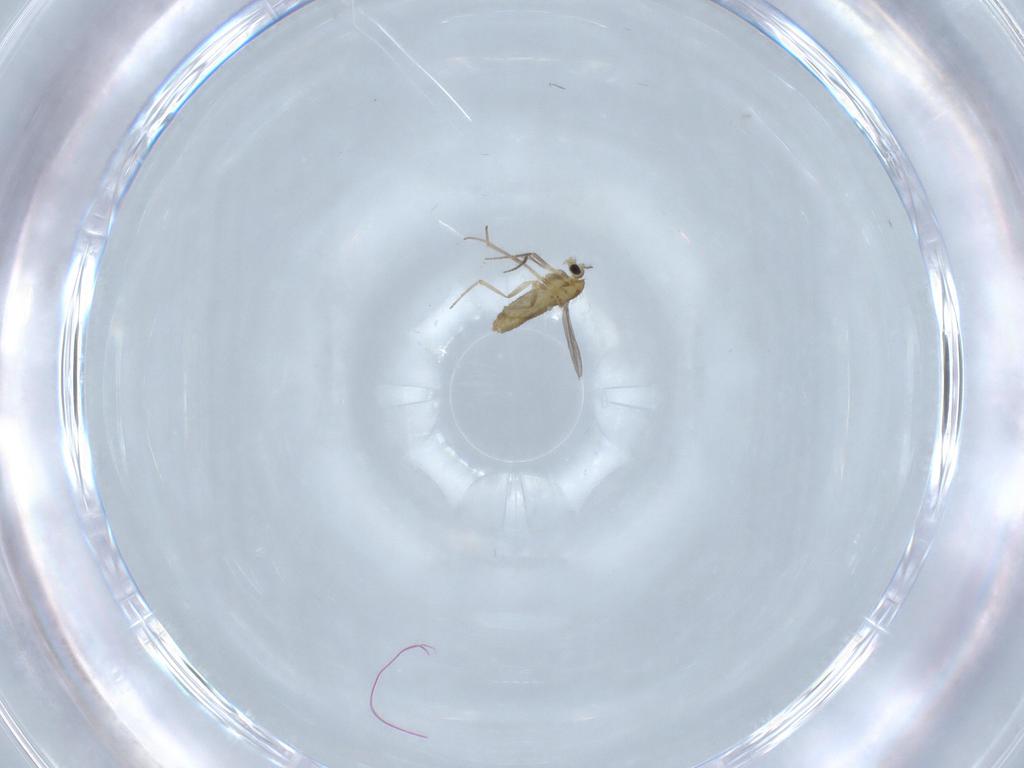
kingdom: Animalia
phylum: Arthropoda
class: Insecta
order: Diptera
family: Chironomidae
